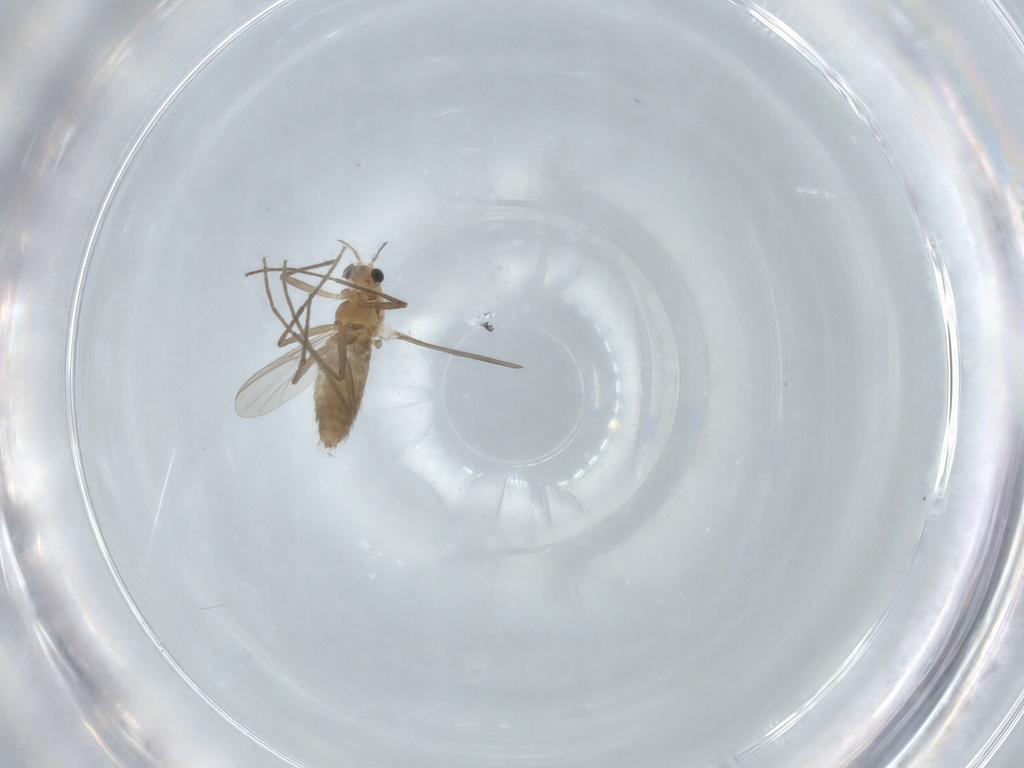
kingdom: Animalia
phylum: Arthropoda
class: Insecta
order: Diptera
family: Chironomidae
